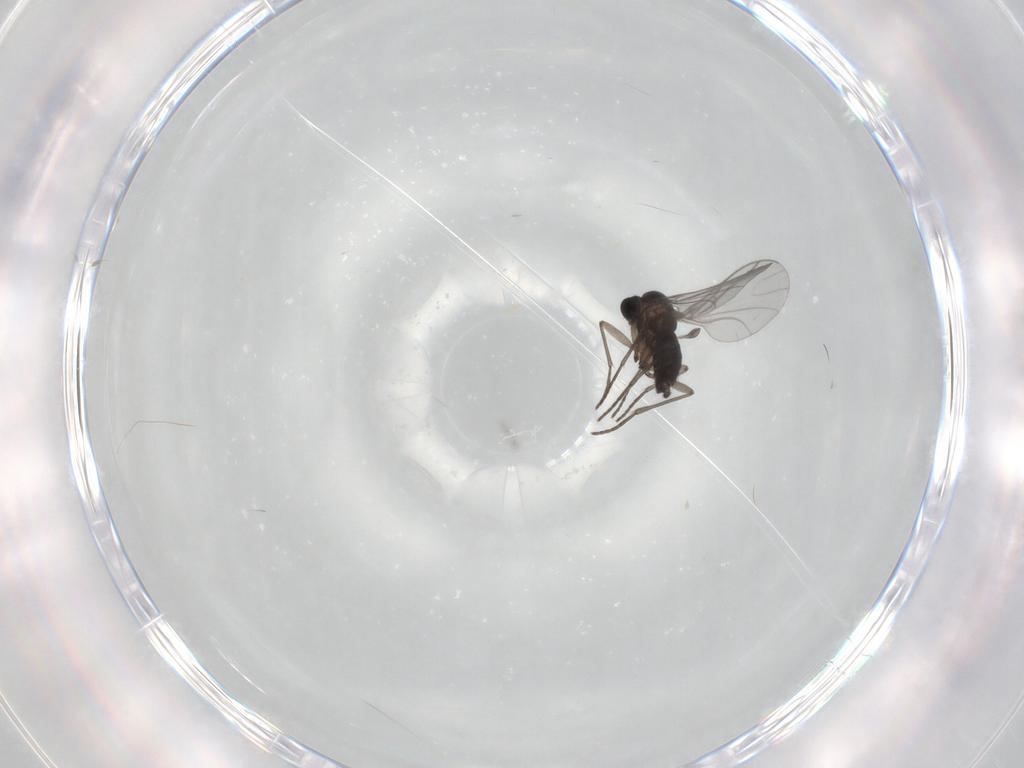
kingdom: Animalia
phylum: Arthropoda
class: Insecta
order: Diptera
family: Sciaridae
